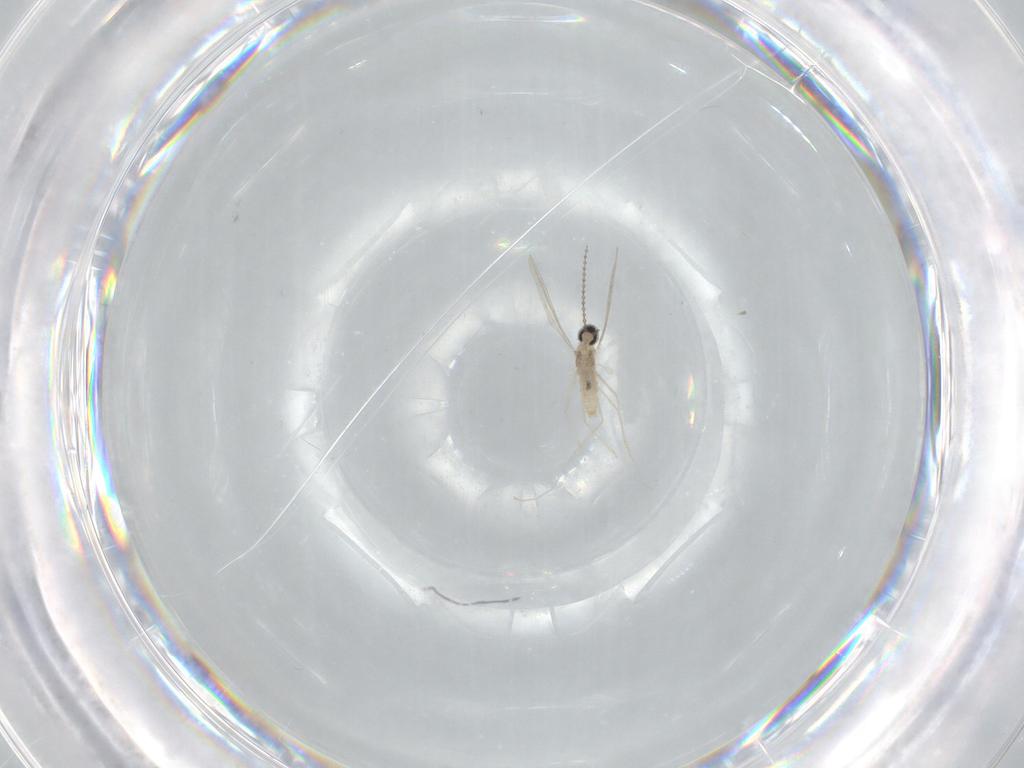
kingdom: Animalia
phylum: Arthropoda
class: Insecta
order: Diptera
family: Cecidomyiidae
